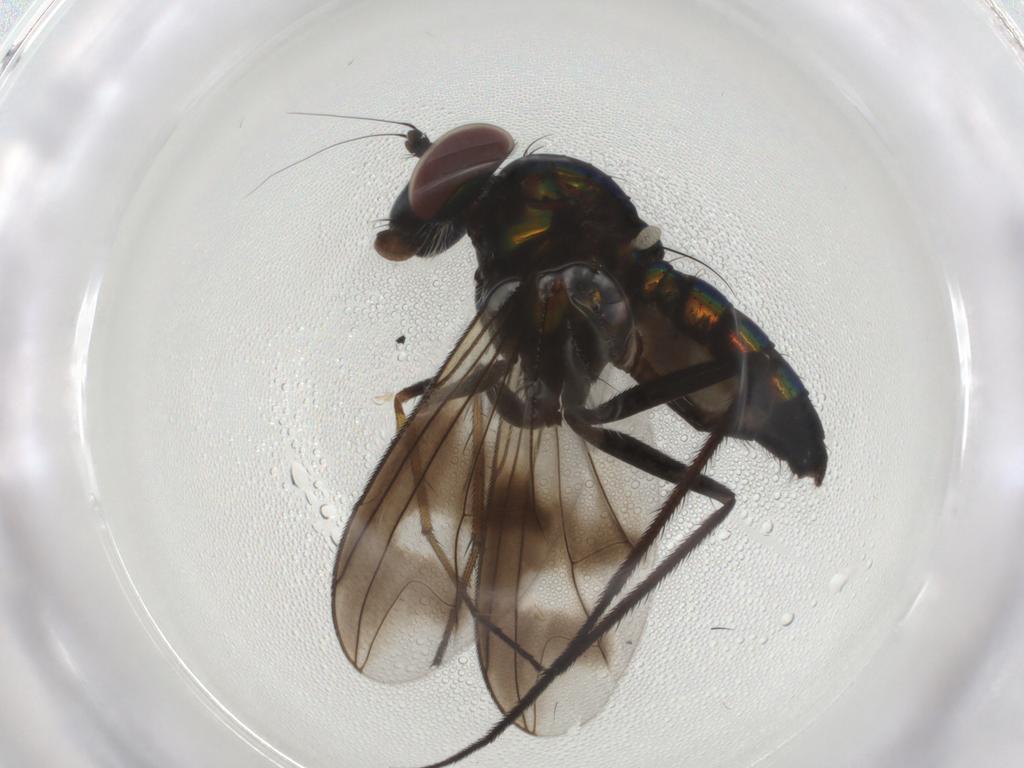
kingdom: Animalia
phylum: Arthropoda
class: Insecta
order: Diptera
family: Dolichopodidae
